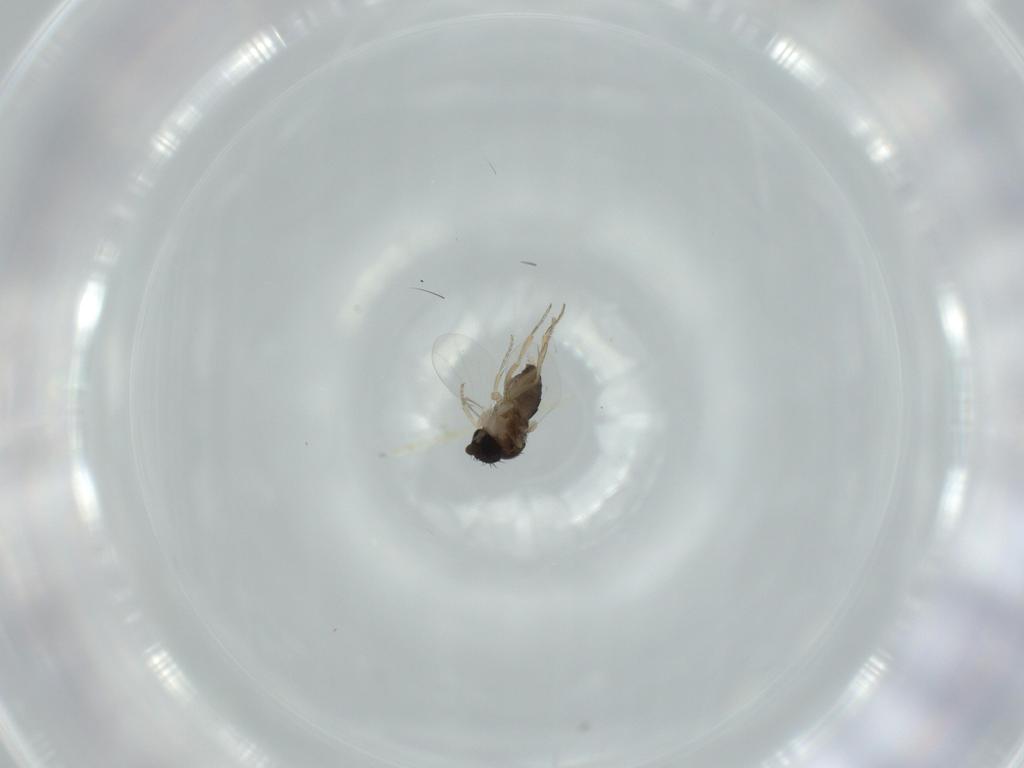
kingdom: Animalia
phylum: Arthropoda
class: Insecta
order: Diptera
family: Phoridae
